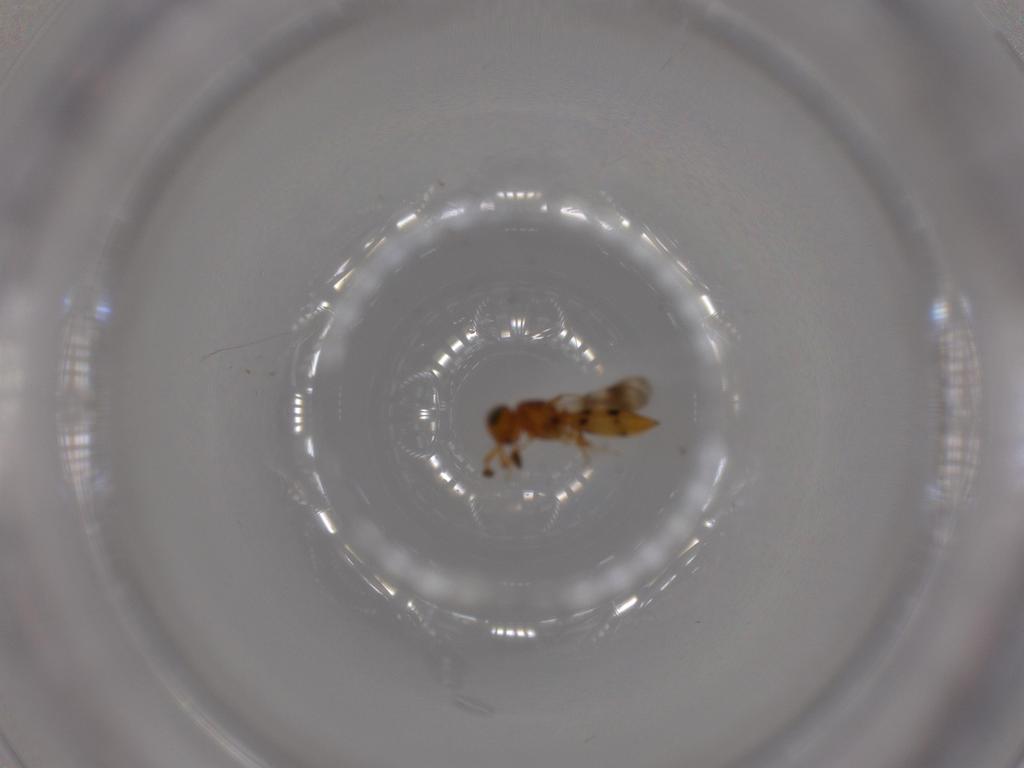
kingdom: Animalia
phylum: Arthropoda
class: Insecta
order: Hymenoptera
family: Scelionidae
